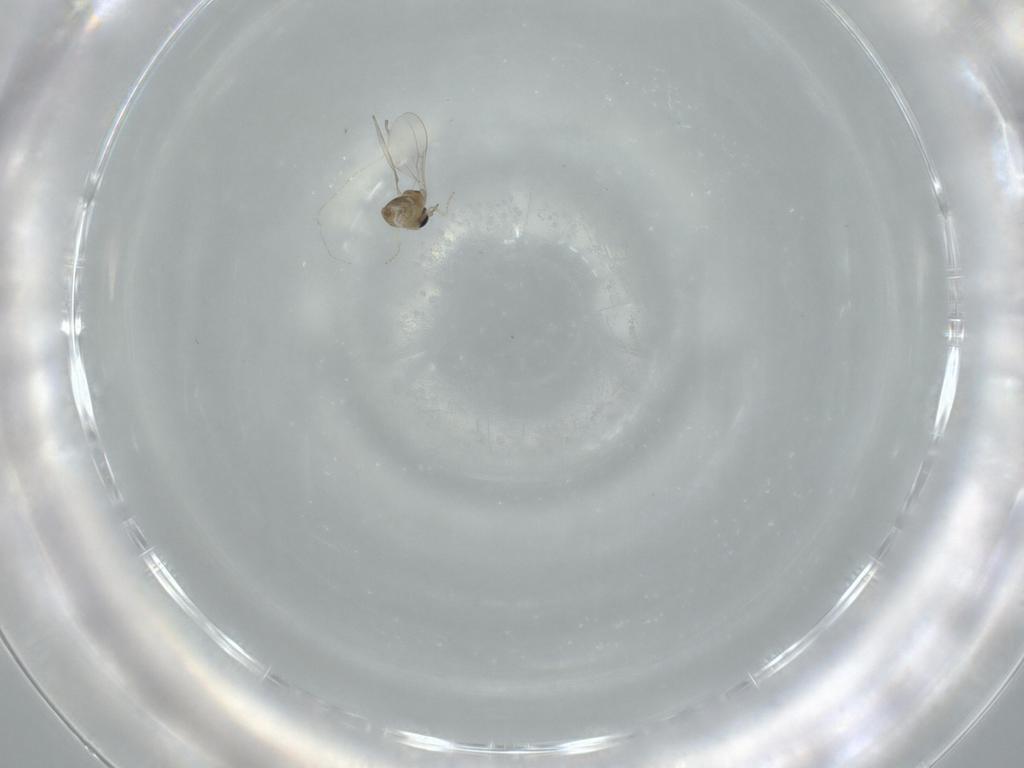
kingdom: Animalia
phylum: Arthropoda
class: Insecta
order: Diptera
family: Cecidomyiidae
